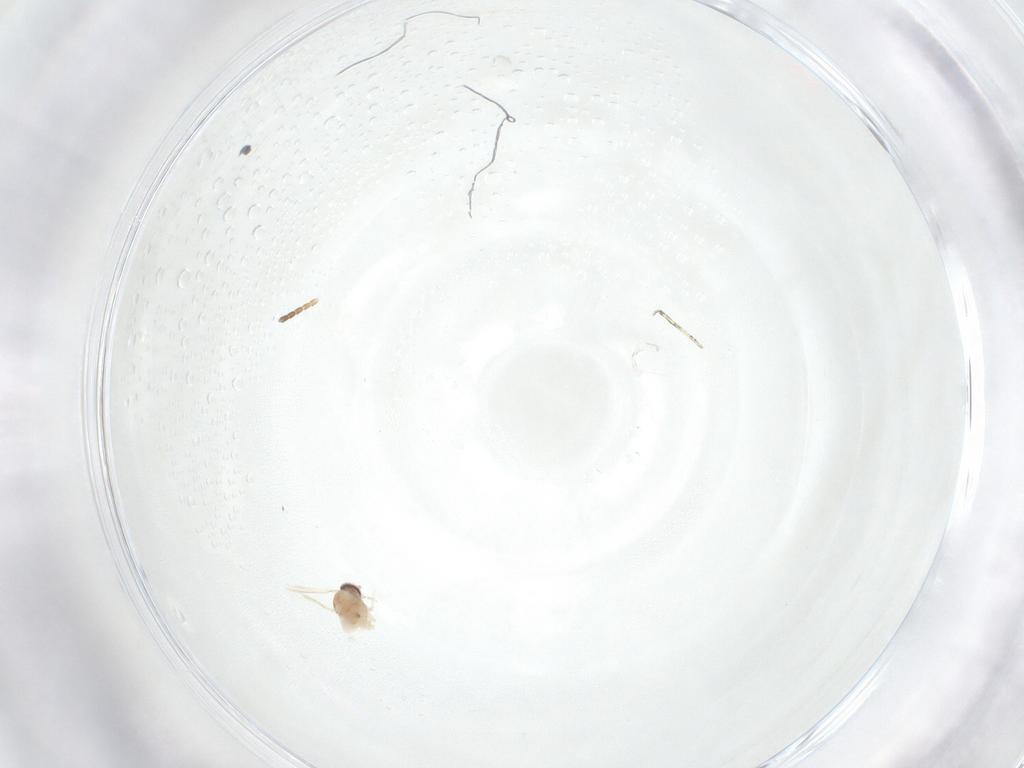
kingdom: Animalia
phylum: Arthropoda
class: Insecta
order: Diptera
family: Cecidomyiidae
